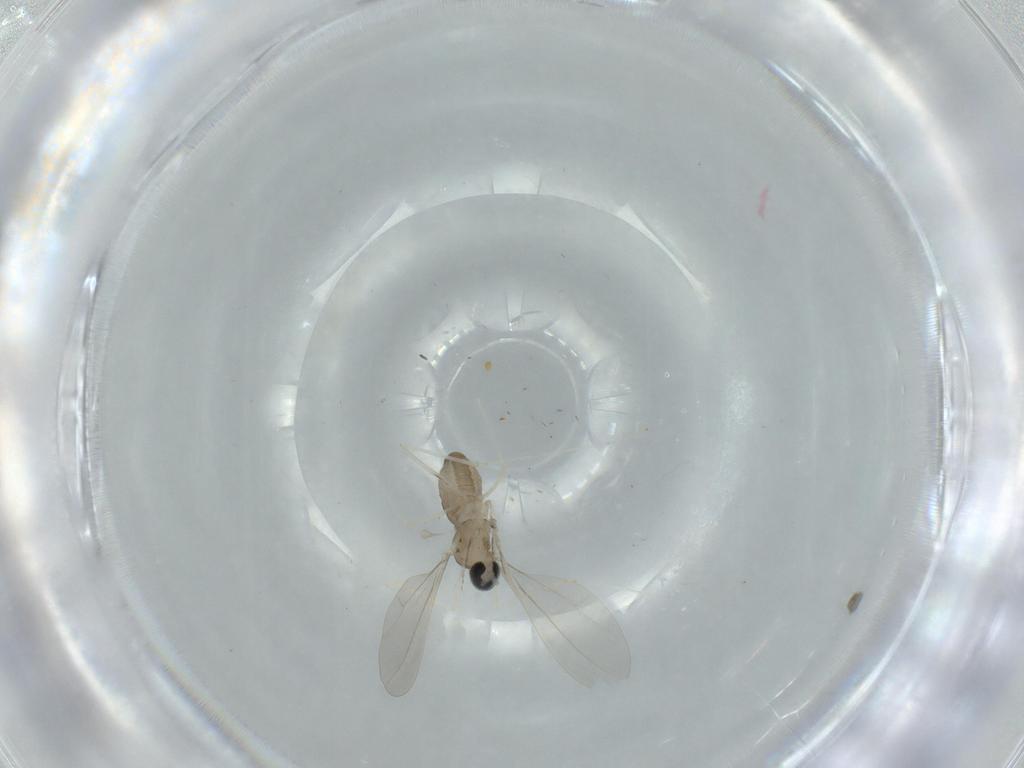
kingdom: Animalia
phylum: Arthropoda
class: Insecta
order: Diptera
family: Cecidomyiidae
